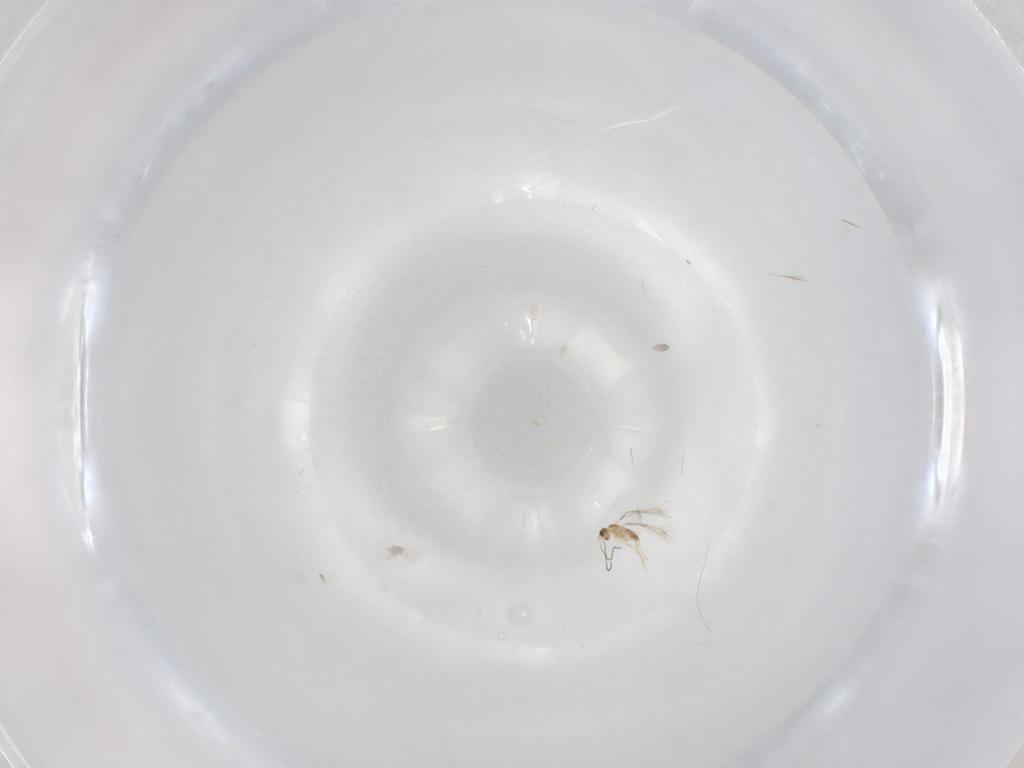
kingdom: Animalia
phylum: Arthropoda
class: Insecta
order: Hymenoptera
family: Mymaridae
